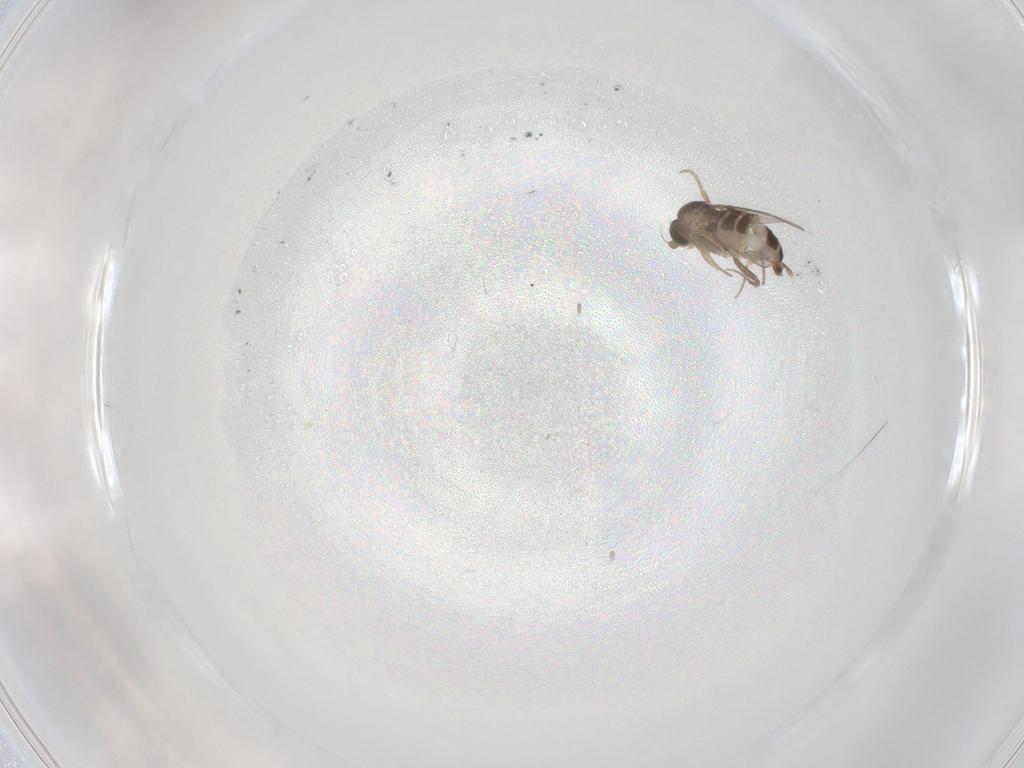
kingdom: Animalia
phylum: Arthropoda
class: Insecta
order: Diptera
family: Phoridae
